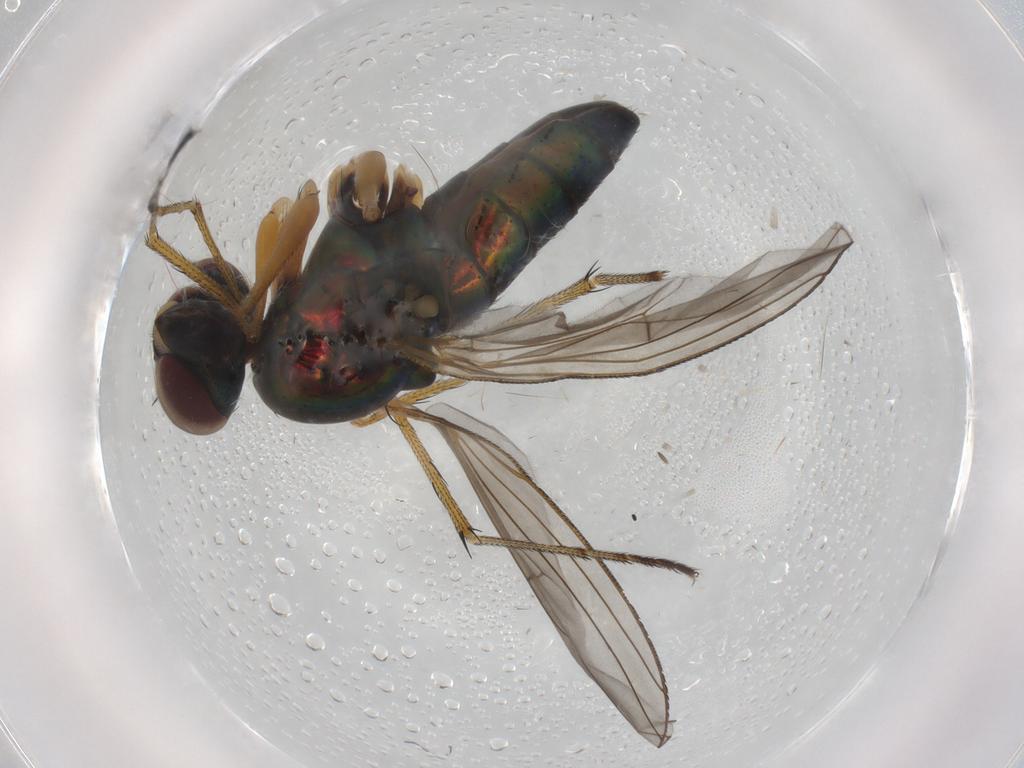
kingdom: Animalia
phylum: Arthropoda
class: Insecta
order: Diptera
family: Dolichopodidae
